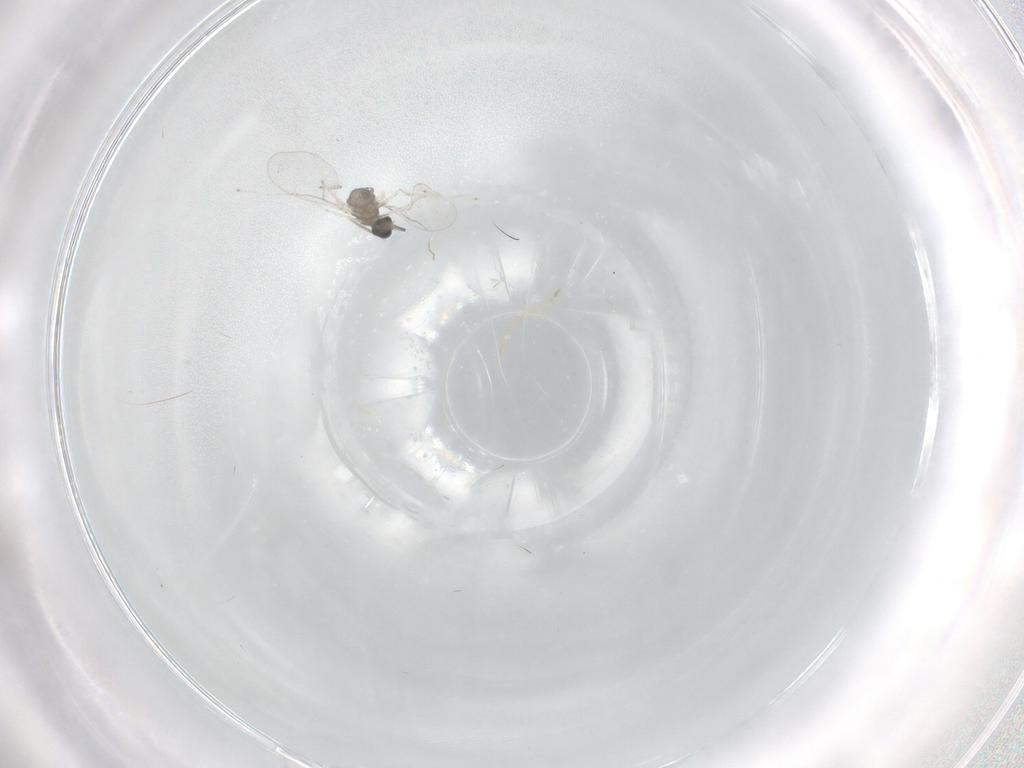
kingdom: Animalia
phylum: Arthropoda
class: Insecta
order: Diptera
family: Cecidomyiidae
